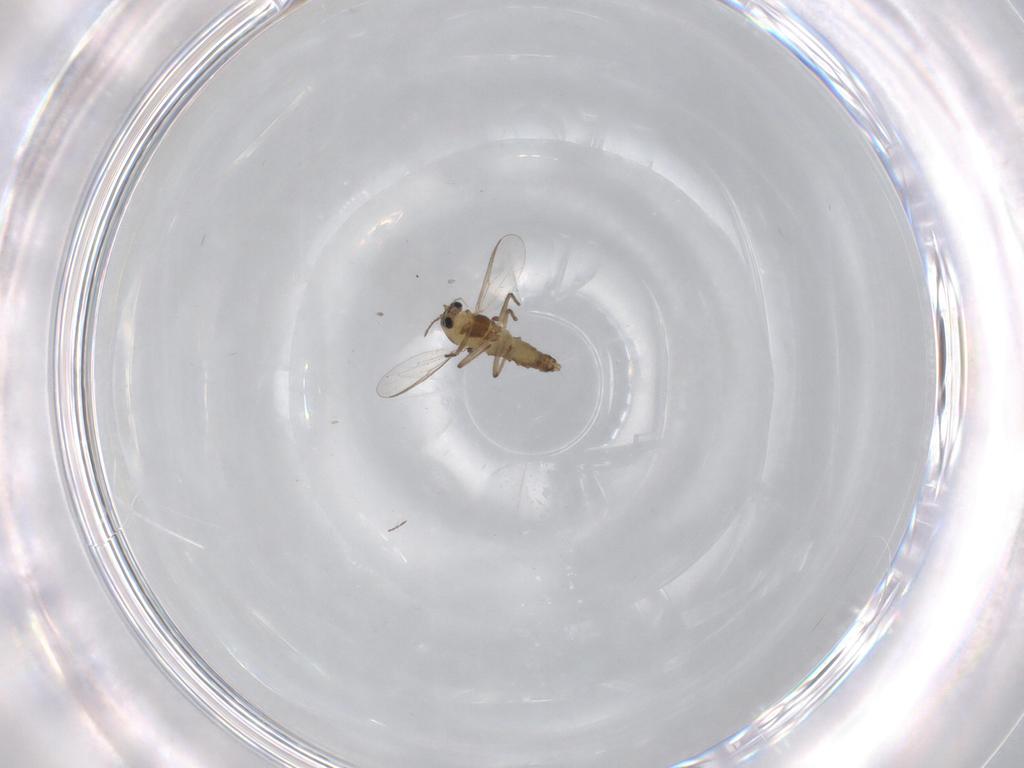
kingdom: Animalia
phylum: Arthropoda
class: Insecta
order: Diptera
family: Chironomidae
